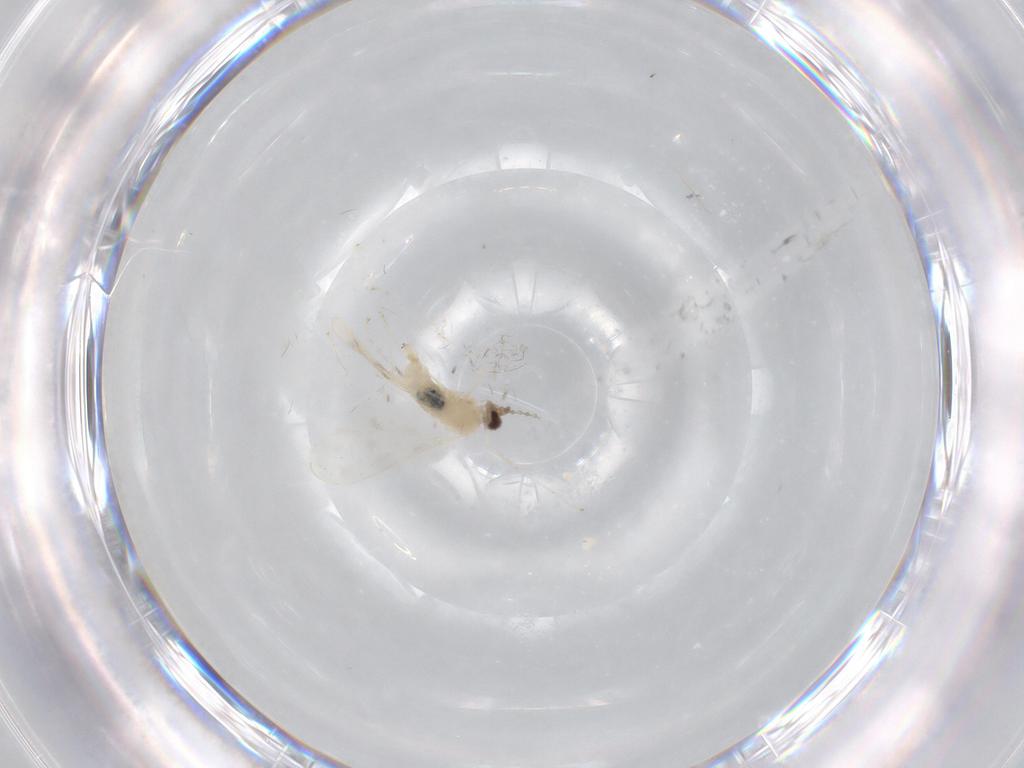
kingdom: Animalia
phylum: Arthropoda
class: Insecta
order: Diptera
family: Cecidomyiidae
